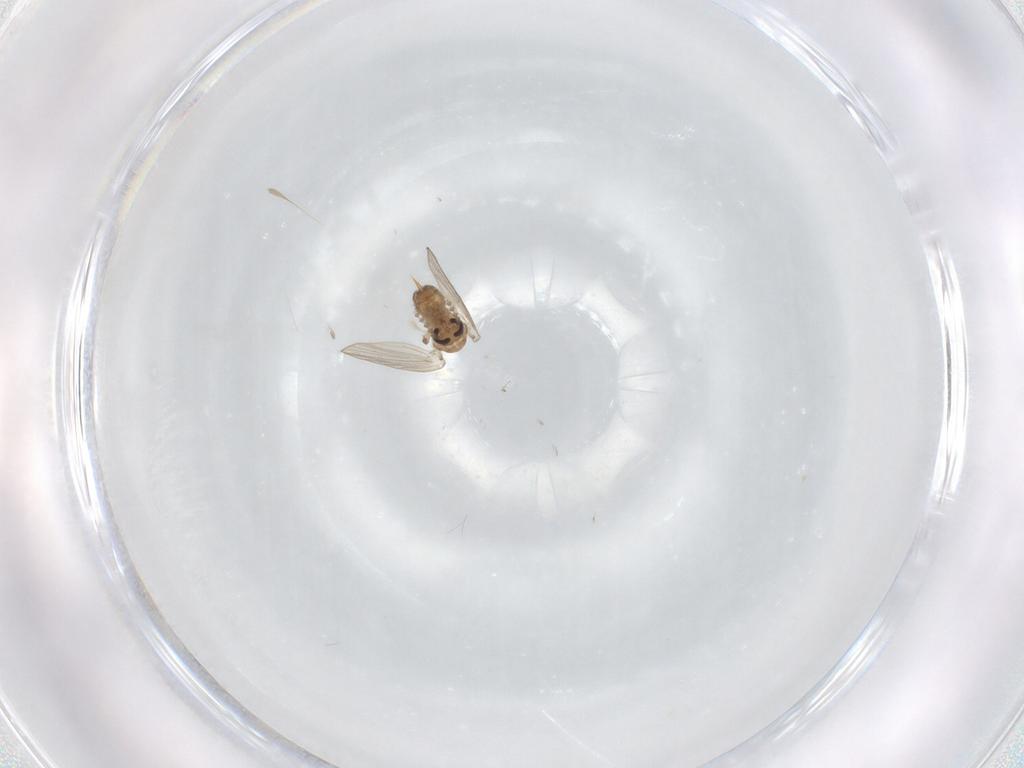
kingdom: Animalia
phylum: Arthropoda
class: Insecta
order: Diptera
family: Psychodidae
